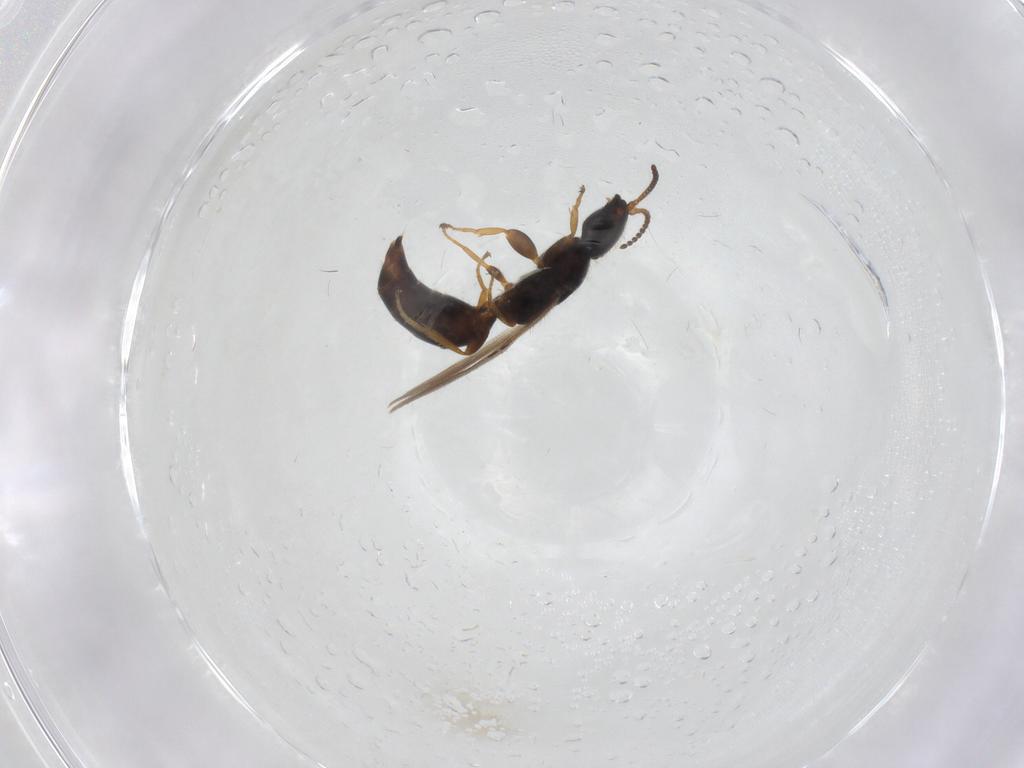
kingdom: Animalia
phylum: Arthropoda
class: Insecta
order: Hymenoptera
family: Bethylidae
